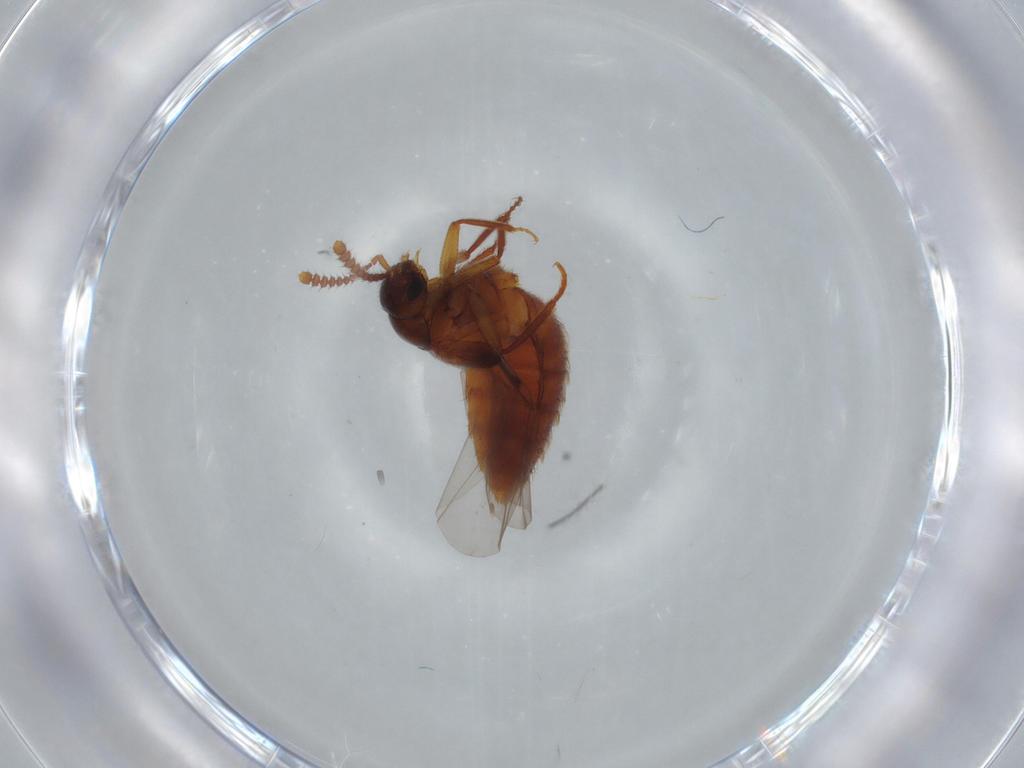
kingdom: Animalia
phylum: Arthropoda
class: Insecta
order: Coleoptera
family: Staphylinidae
